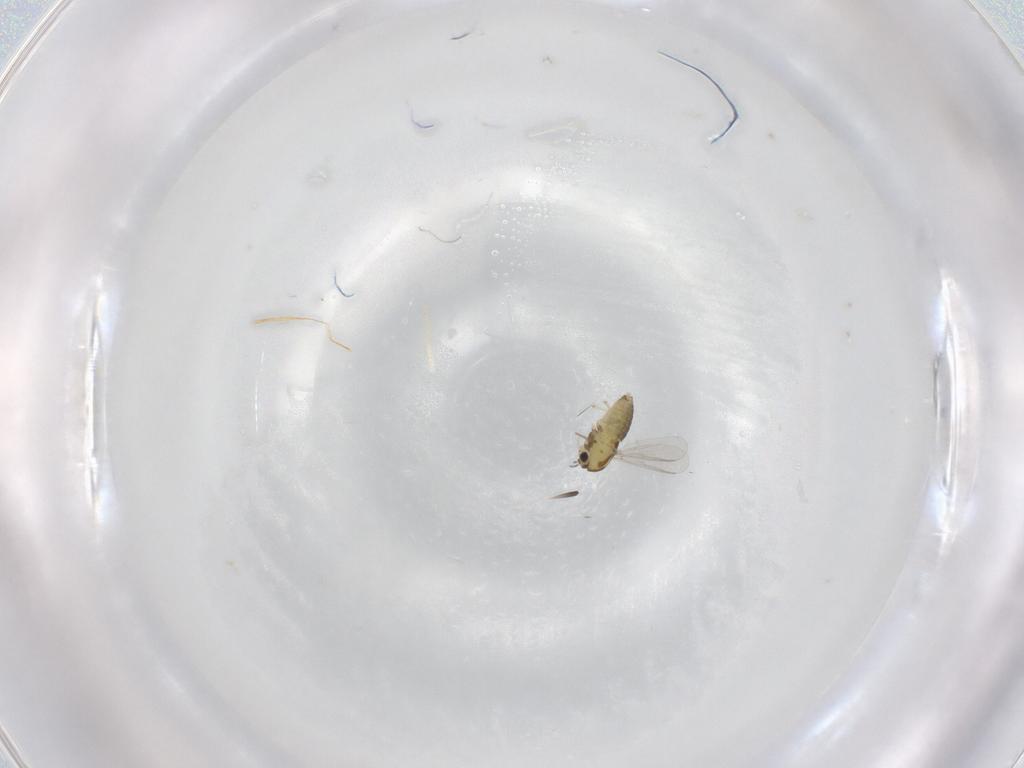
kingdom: Animalia
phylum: Arthropoda
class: Insecta
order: Diptera
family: Chironomidae
